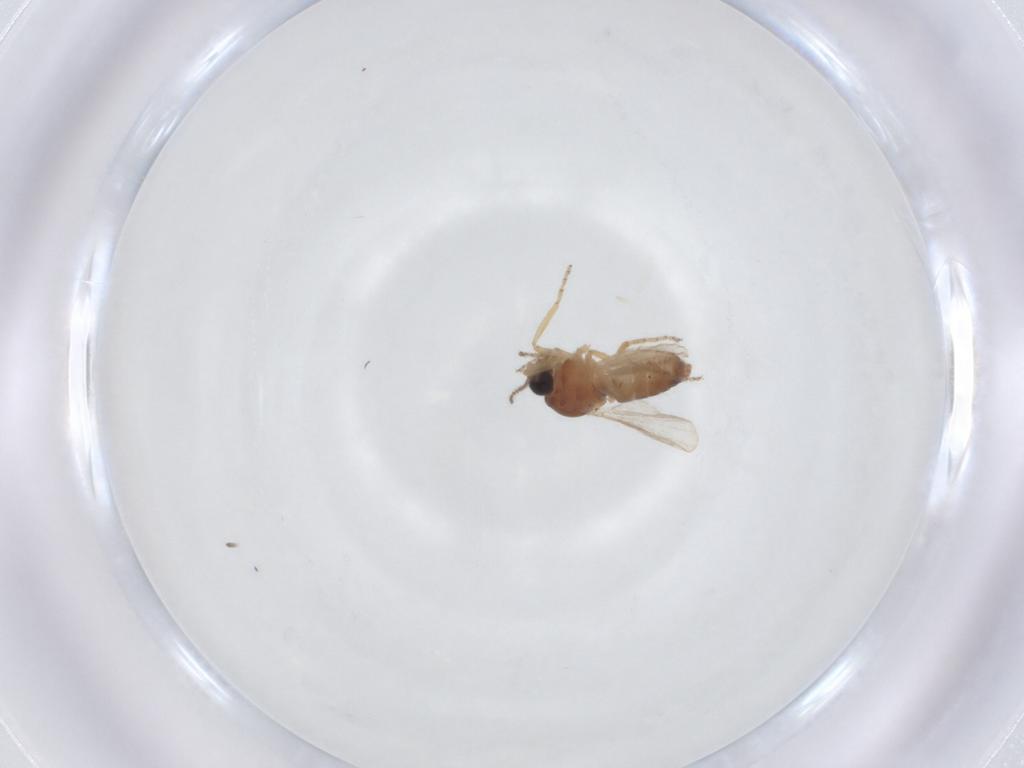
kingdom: Animalia
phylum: Arthropoda
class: Insecta
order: Diptera
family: Ceratopogonidae
